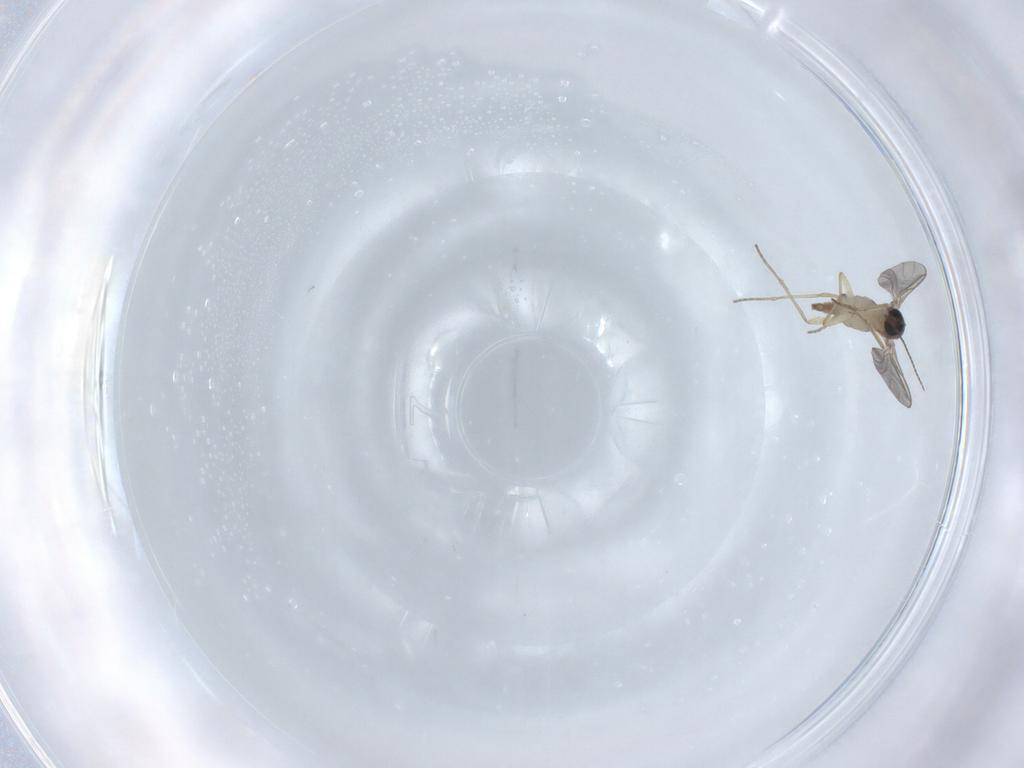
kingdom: Animalia
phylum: Arthropoda
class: Insecta
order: Diptera
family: Sciaridae
